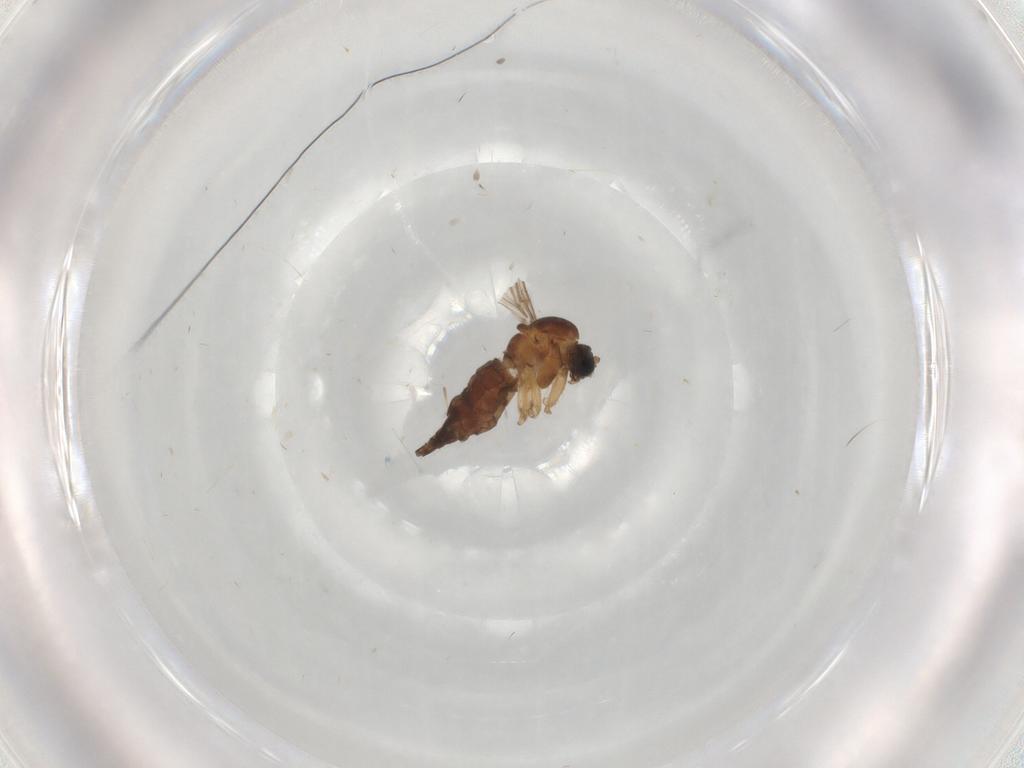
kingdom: Animalia
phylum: Arthropoda
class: Insecta
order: Diptera
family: Sciaridae
